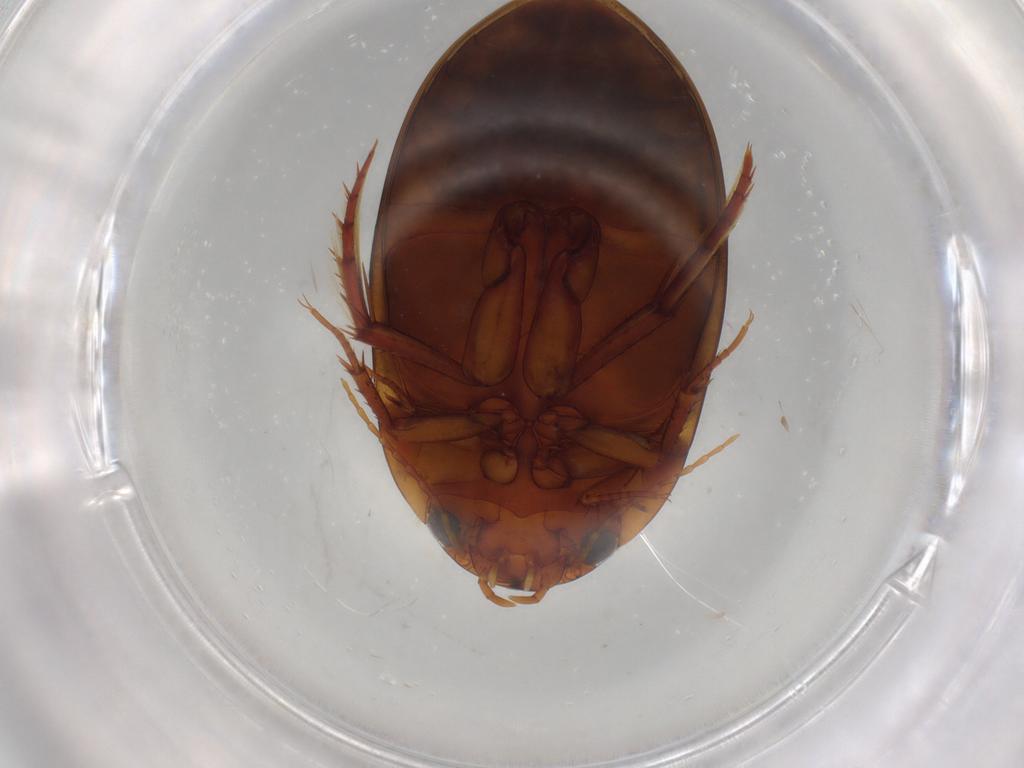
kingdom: Animalia
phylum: Arthropoda
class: Insecta
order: Coleoptera
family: Dytiscidae
